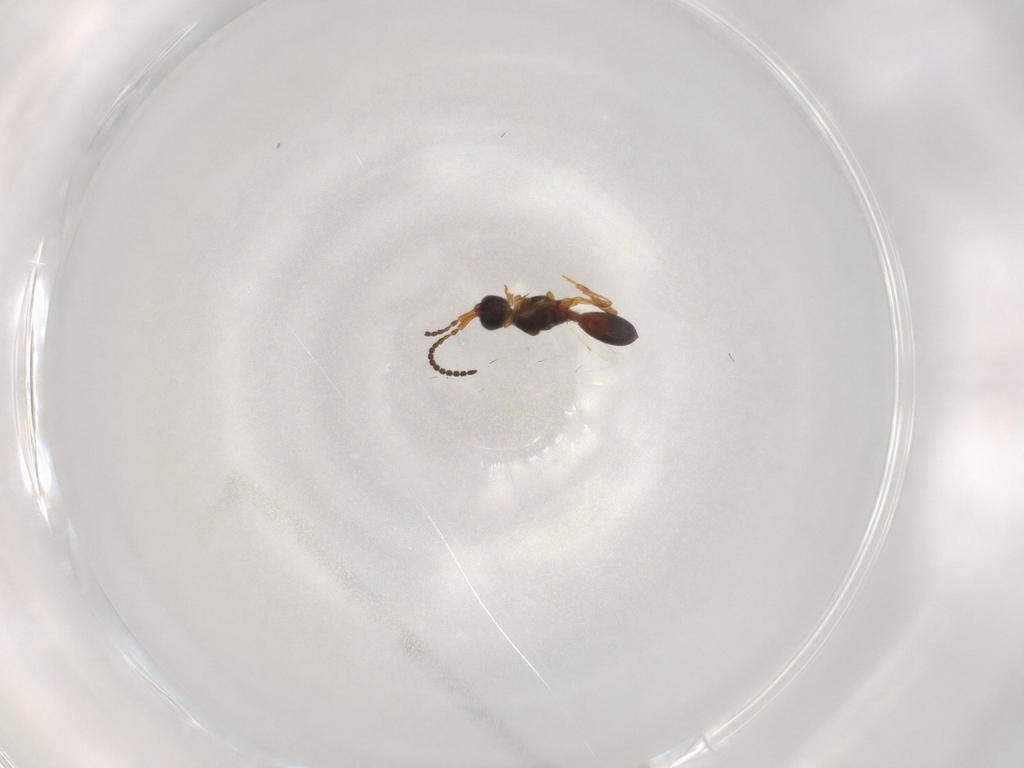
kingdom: Animalia
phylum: Arthropoda
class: Insecta
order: Hymenoptera
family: Diapriidae
